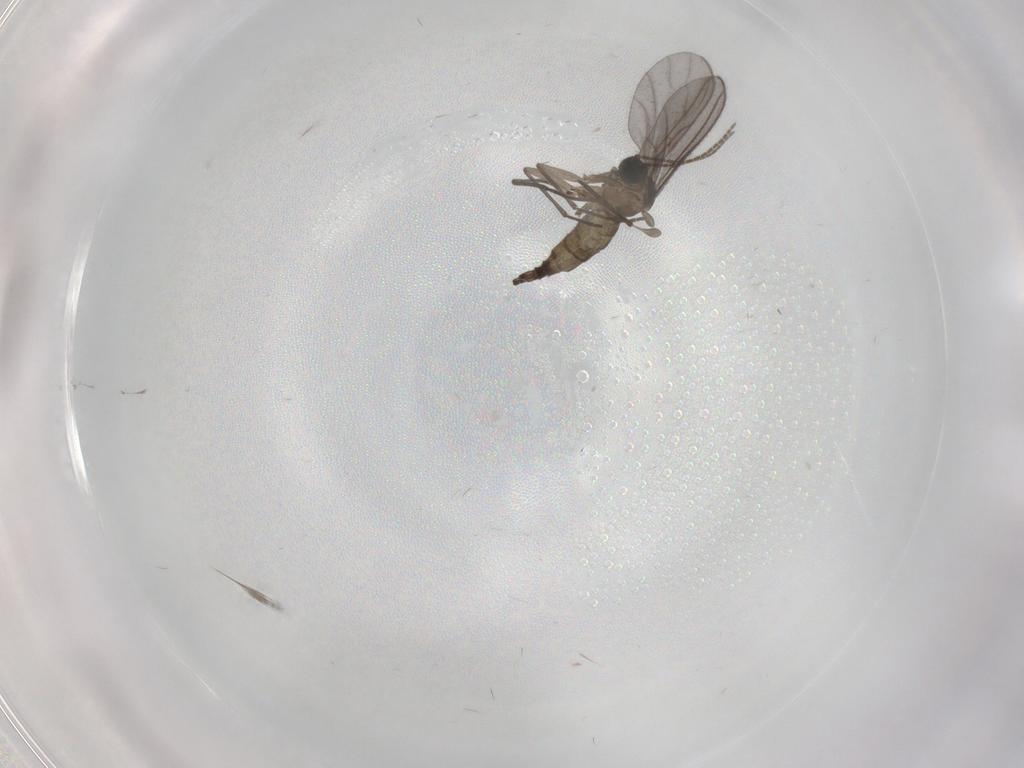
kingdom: Animalia
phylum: Arthropoda
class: Insecta
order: Diptera
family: Sciaridae
